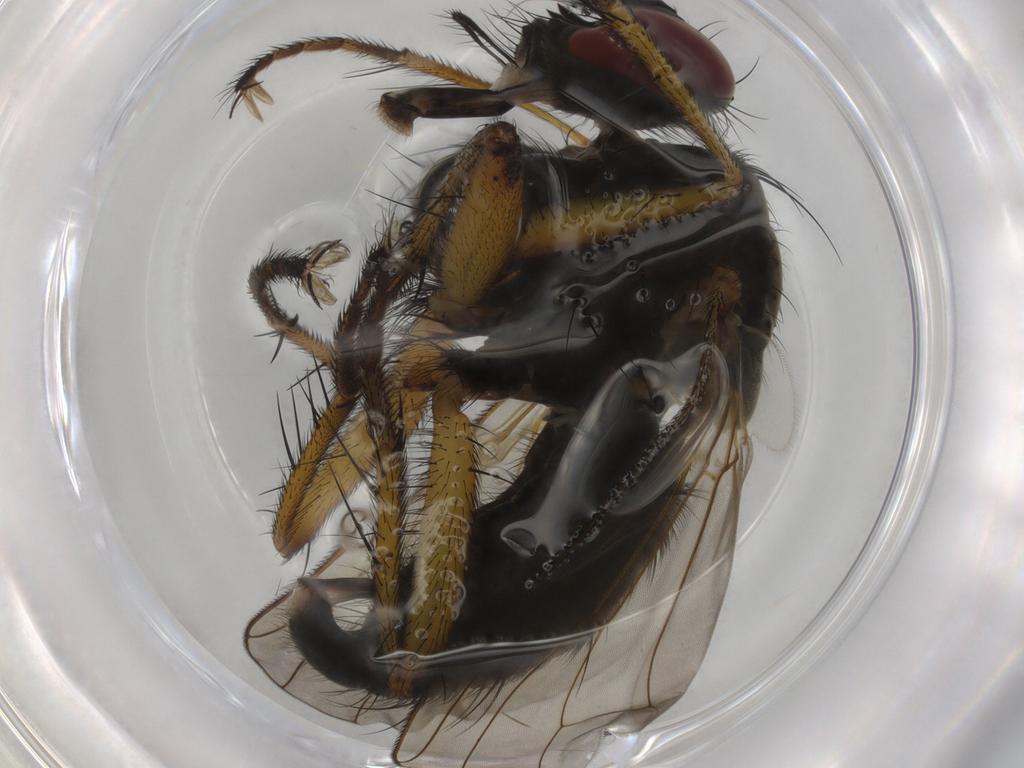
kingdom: Animalia
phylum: Arthropoda
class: Insecta
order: Diptera
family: Muscidae
